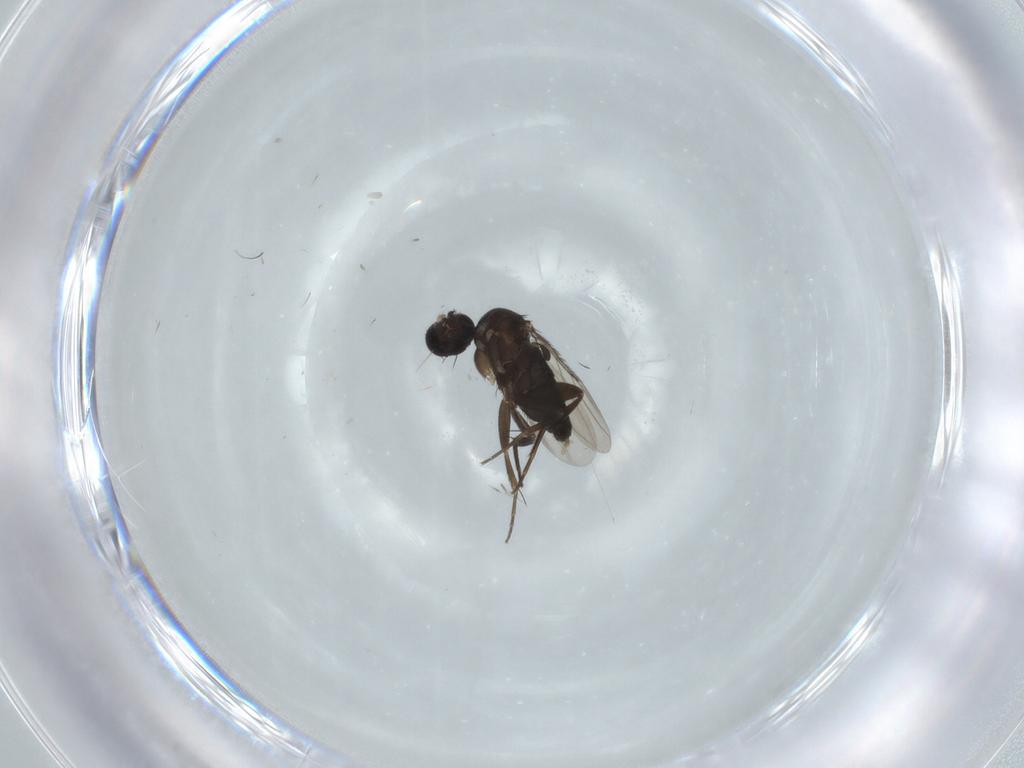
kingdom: Animalia
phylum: Arthropoda
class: Insecta
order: Diptera
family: Phoridae
